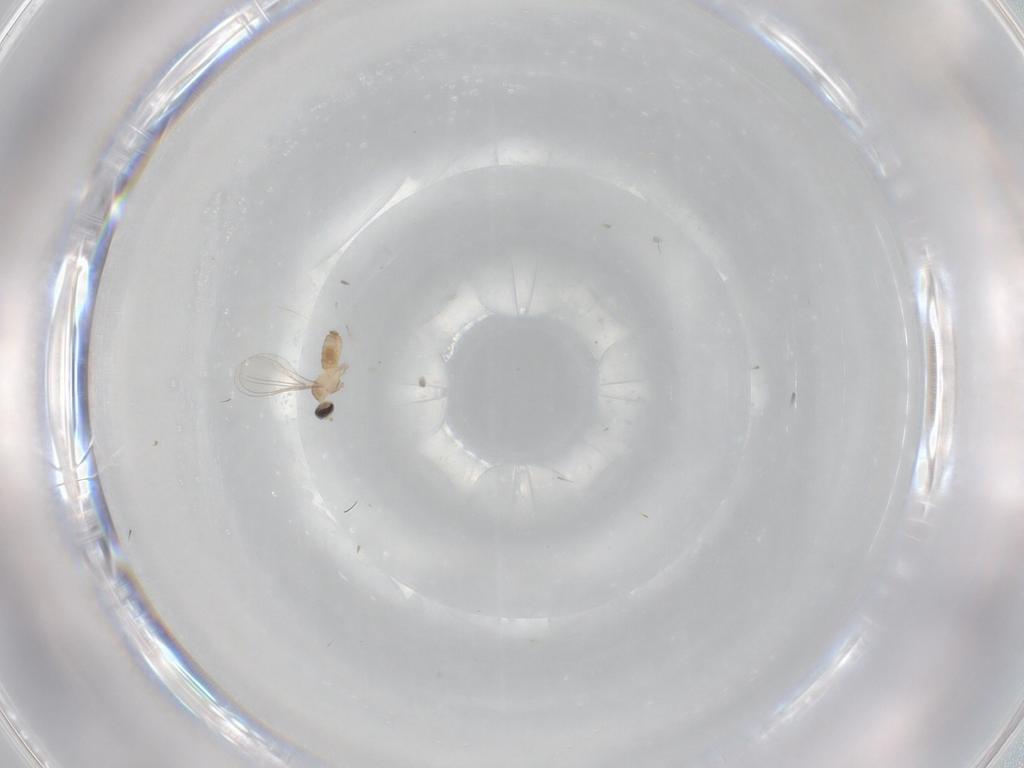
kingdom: Animalia
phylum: Arthropoda
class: Insecta
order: Diptera
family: Cecidomyiidae
